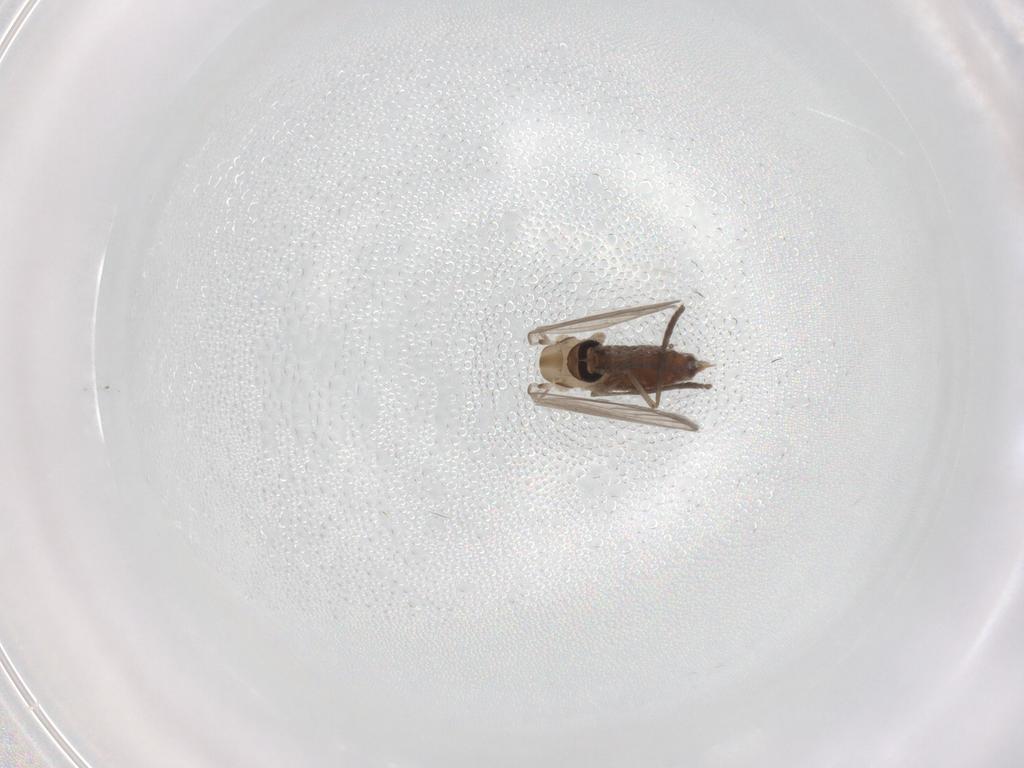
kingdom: Animalia
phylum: Arthropoda
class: Insecta
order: Diptera
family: Psychodidae
